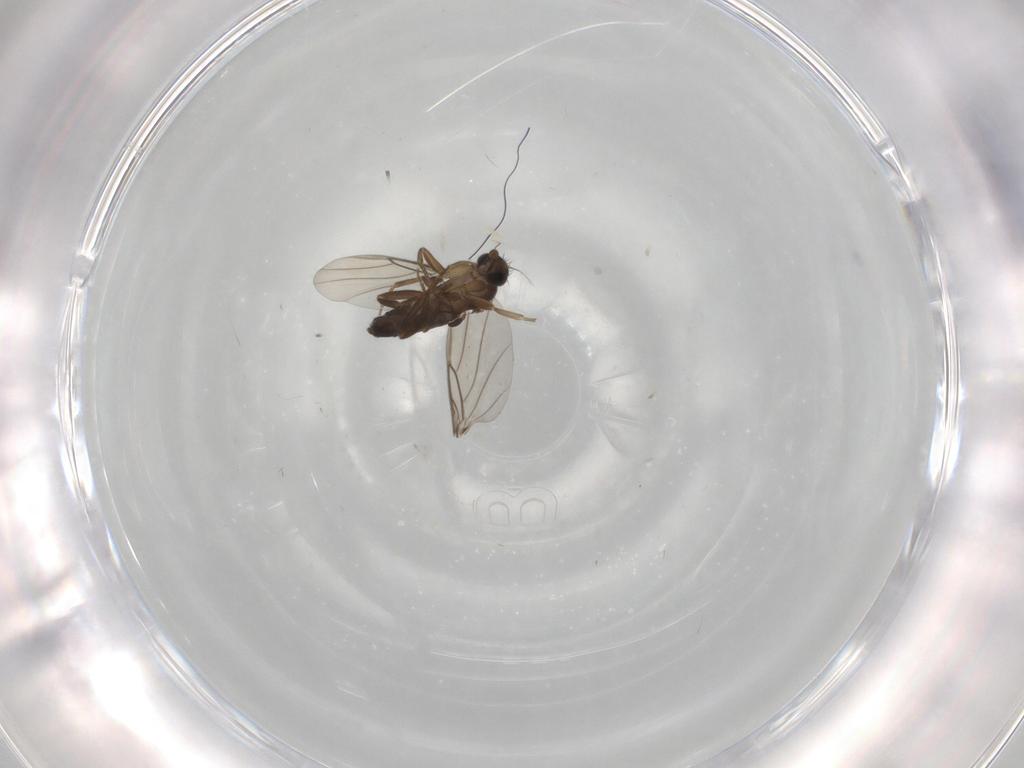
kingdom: Animalia
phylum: Arthropoda
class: Insecta
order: Diptera
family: Phoridae
